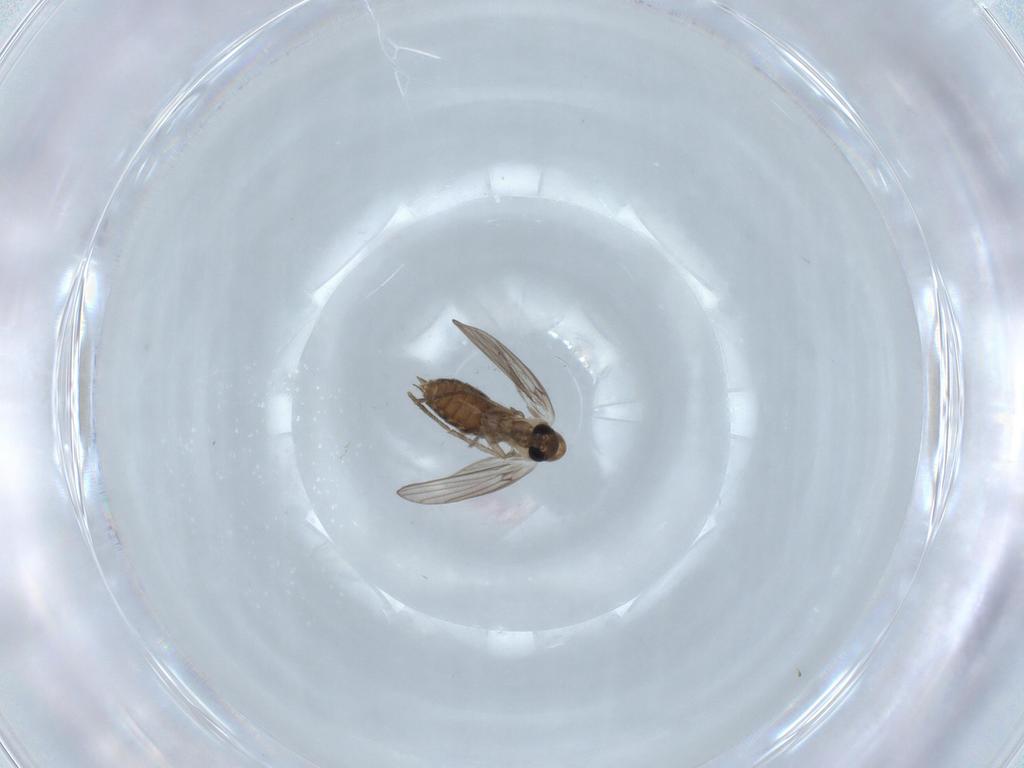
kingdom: Animalia
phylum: Arthropoda
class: Insecta
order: Diptera
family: Psychodidae
